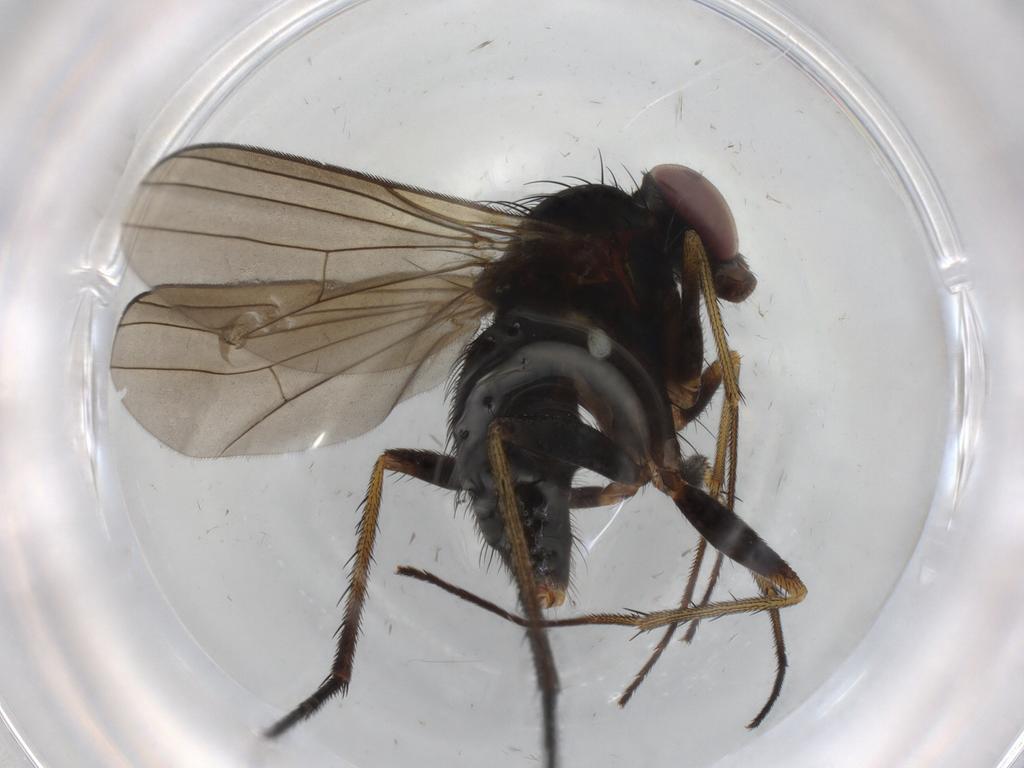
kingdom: Animalia
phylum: Arthropoda
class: Insecta
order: Diptera
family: Dolichopodidae
